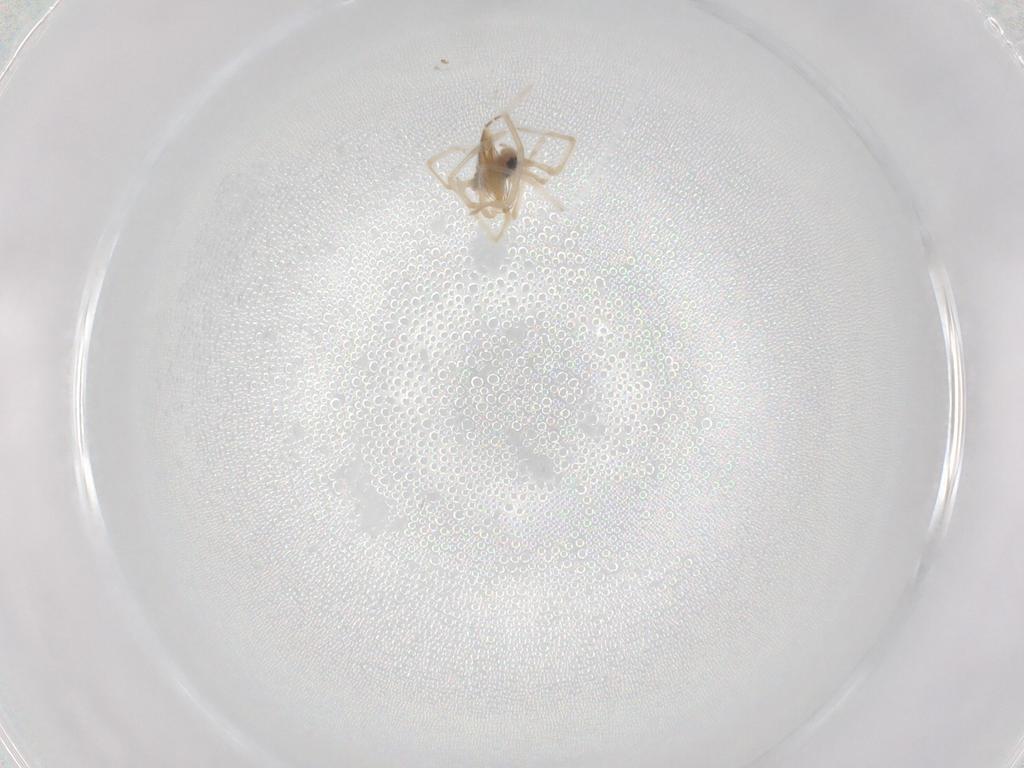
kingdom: Animalia
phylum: Arthropoda
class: Arachnida
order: Araneae
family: Pholcidae
